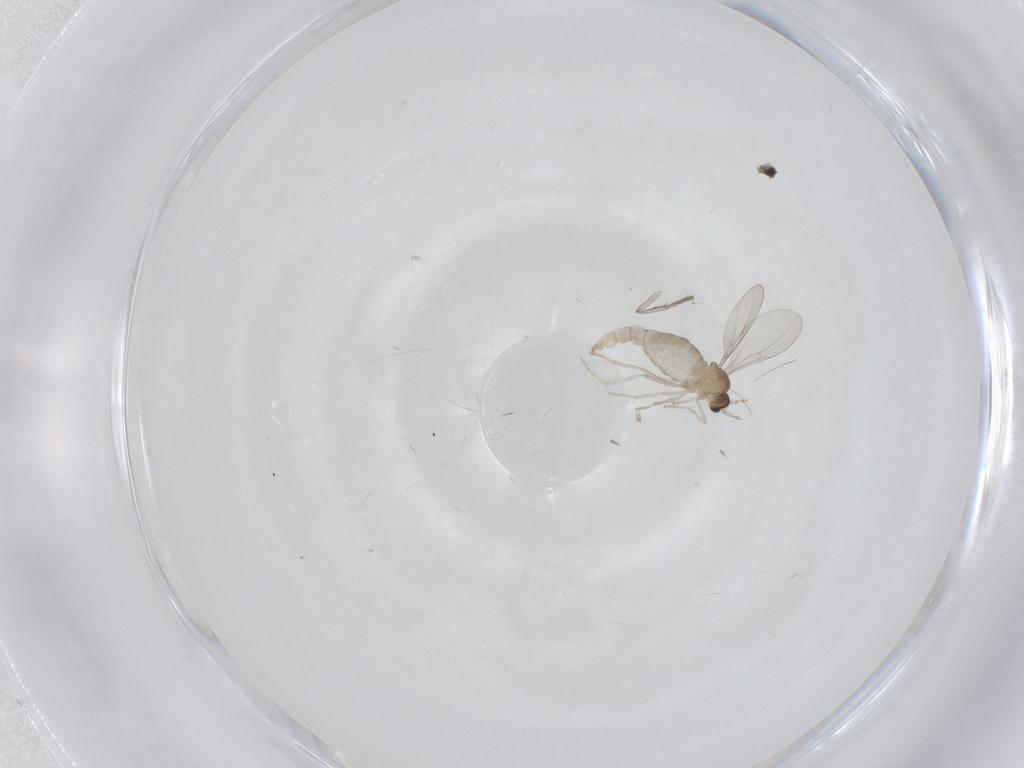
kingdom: Animalia
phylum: Arthropoda
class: Insecta
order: Diptera
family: Cecidomyiidae
